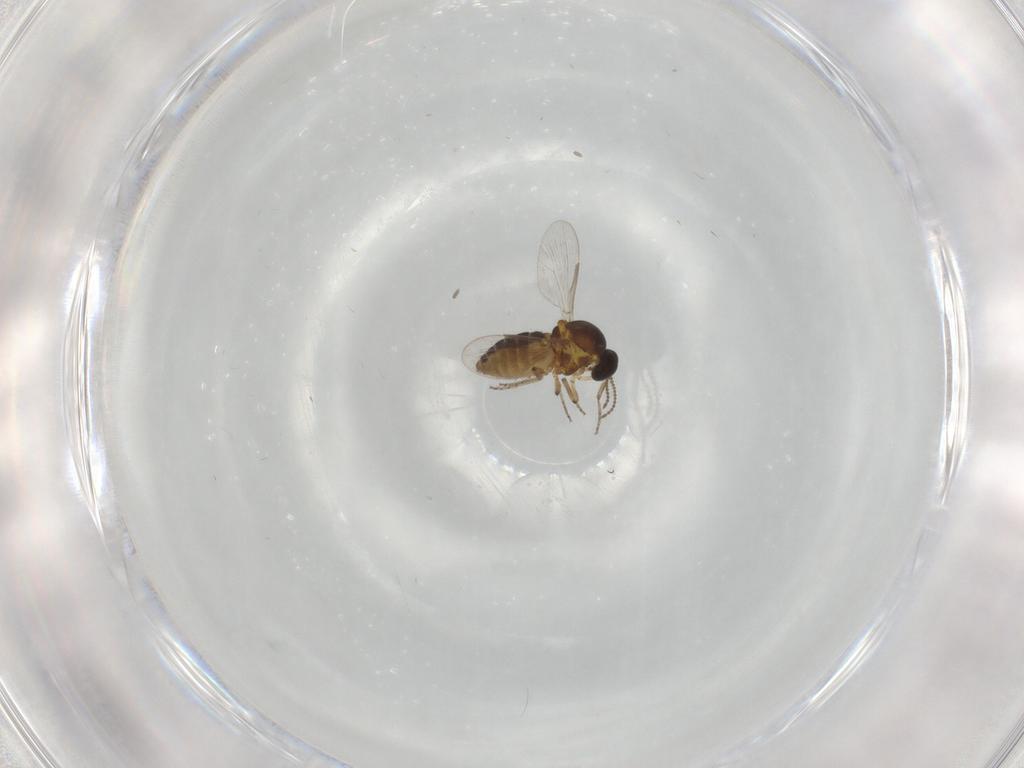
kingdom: Animalia
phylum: Arthropoda
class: Insecta
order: Diptera
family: Ceratopogonidae
